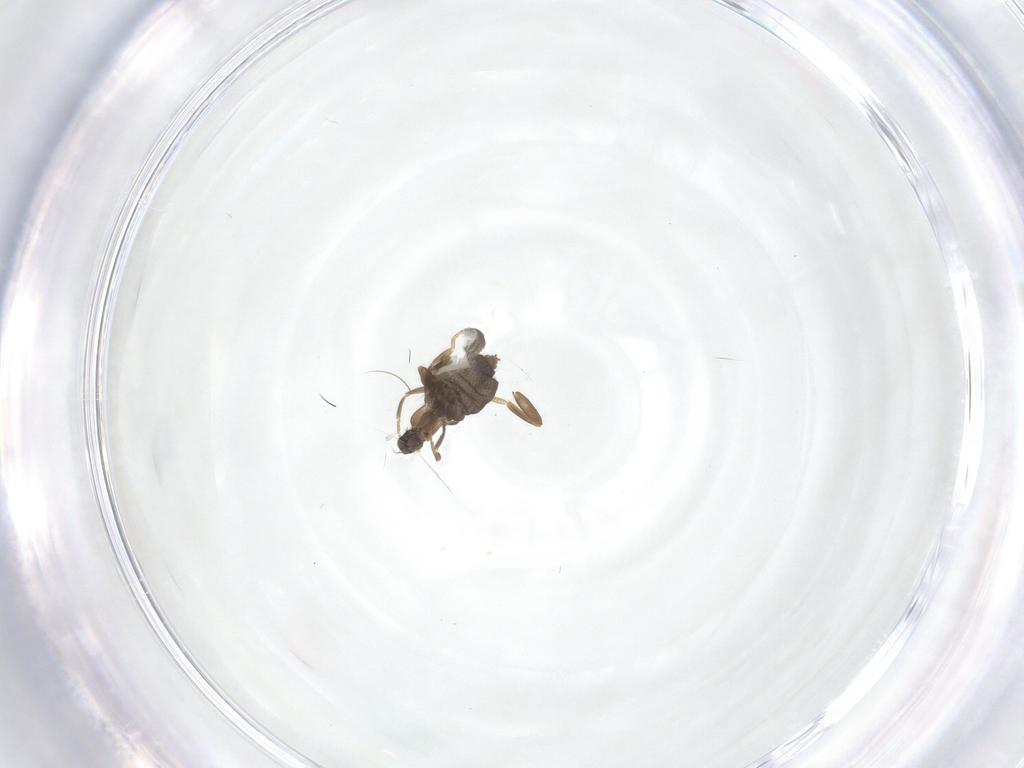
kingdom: Animalia
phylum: Arthropoda
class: Insecta
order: Diptera
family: Phoridae
